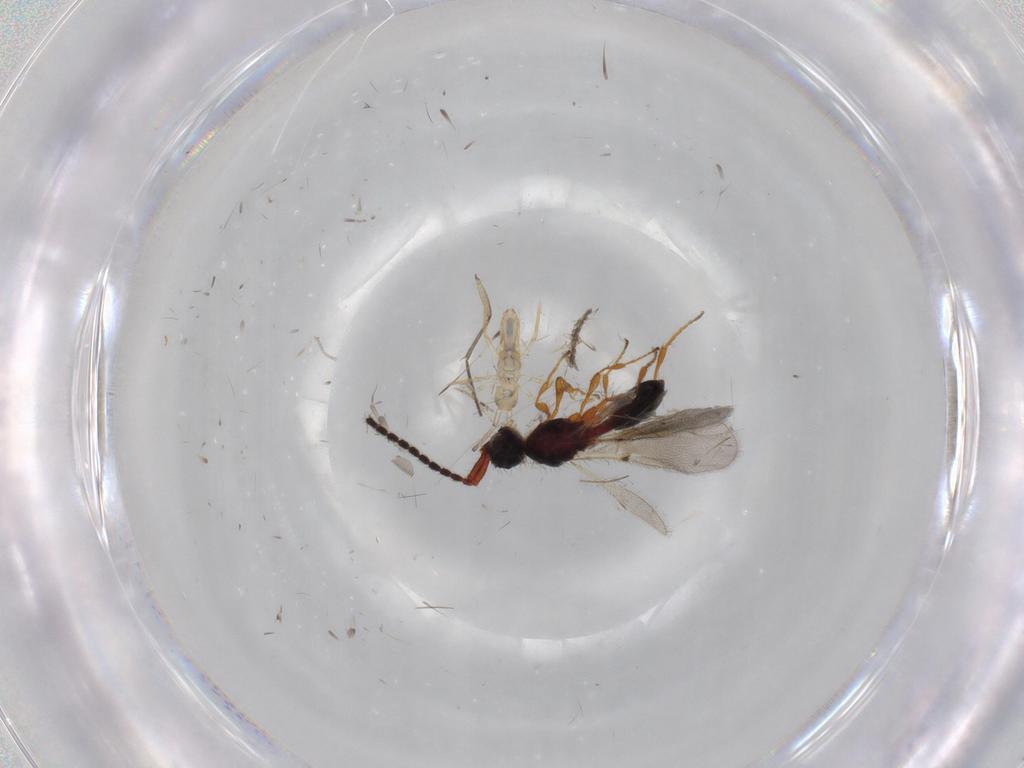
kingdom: Animalia
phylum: Arthropoda
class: Insecta
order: Hymenoptera
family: Diapriidae
